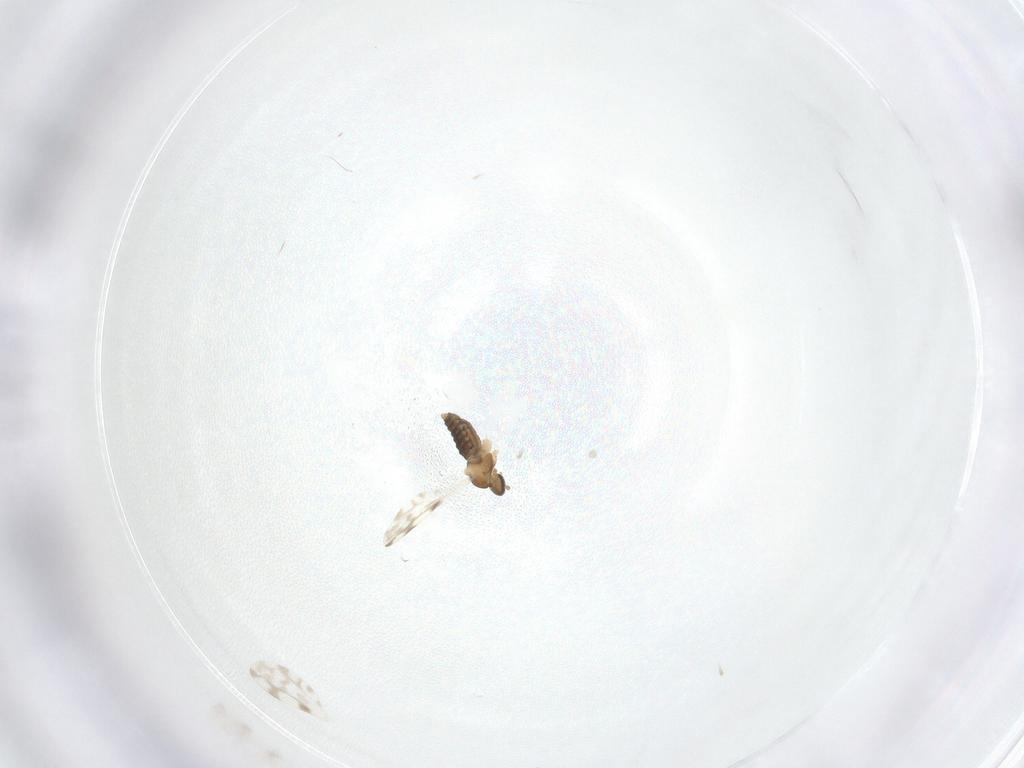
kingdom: Animalia
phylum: Arthropoda
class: Insecta
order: Diptera
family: Cecidomyiidae
